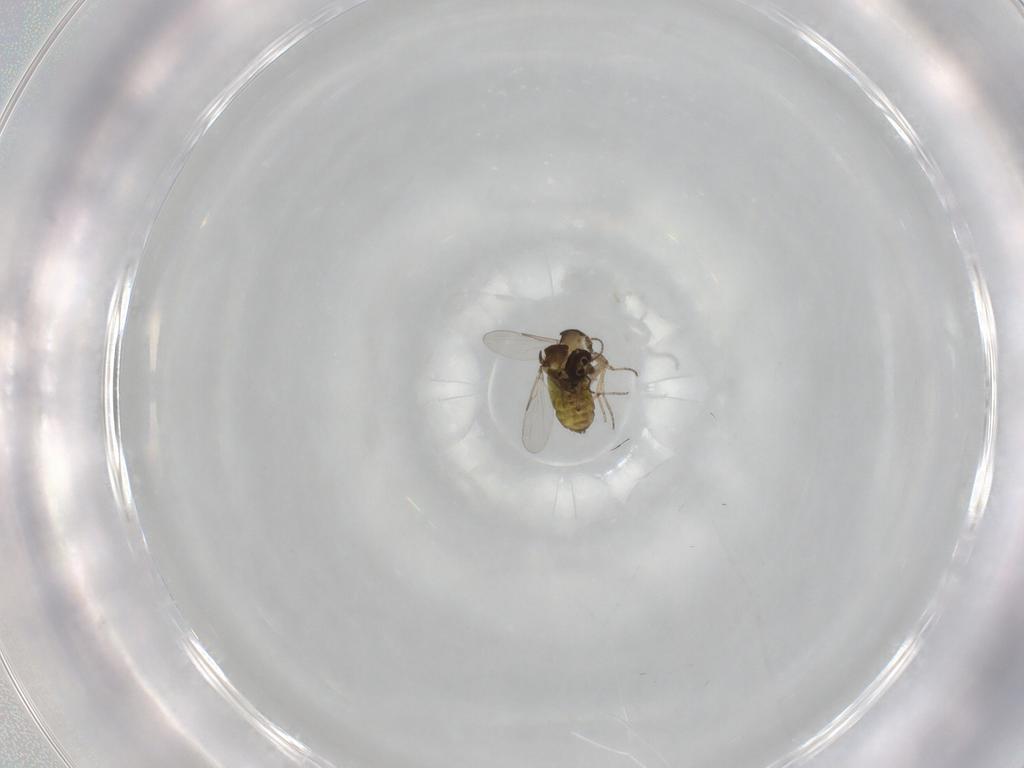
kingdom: Animalia
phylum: Arthropoda
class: Insecta
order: Diptera
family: Ceratopogonidae
